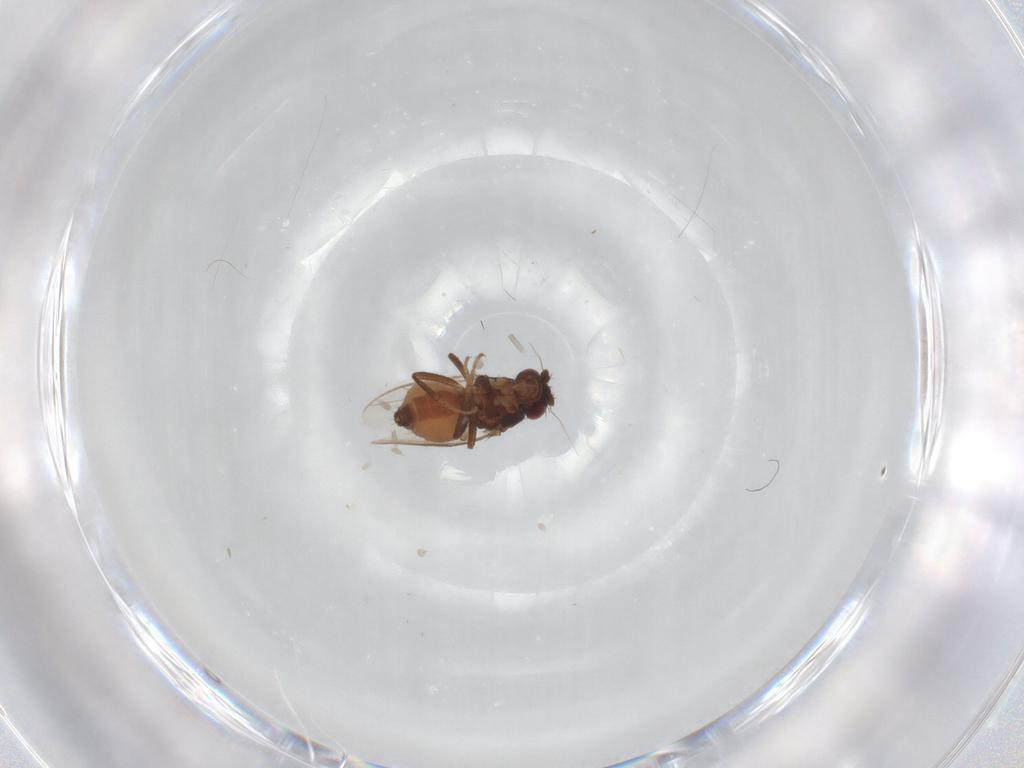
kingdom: Animalia
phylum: Arthropoda
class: Insecta
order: Diptera
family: Sphaeroceridae
